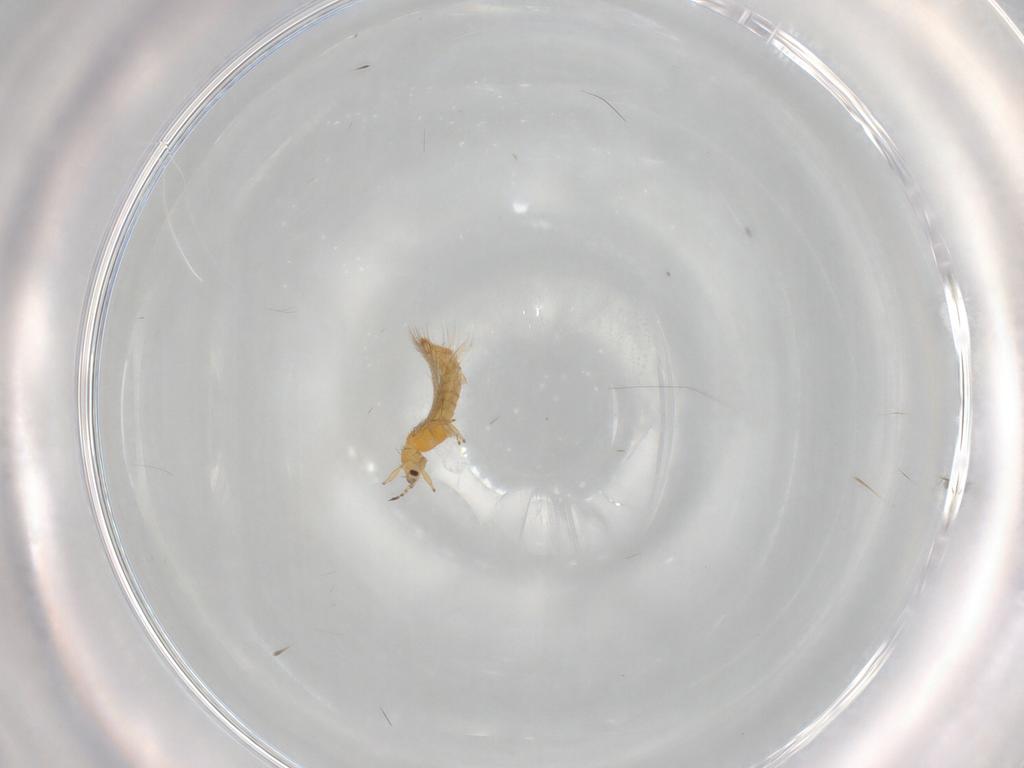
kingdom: Animalia
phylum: Arthropoda
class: Insecta
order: Thysanoptera
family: Thripidae
